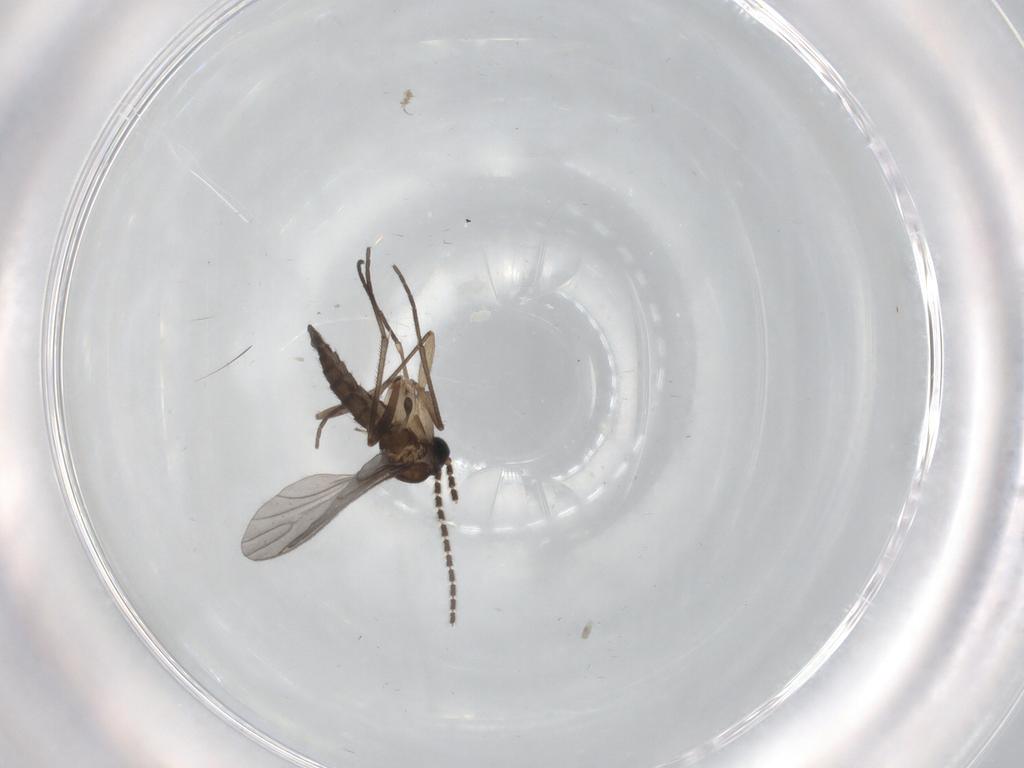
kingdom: Animalia
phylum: Arthropoda
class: Insecta
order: Diptera
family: Sciaridae
